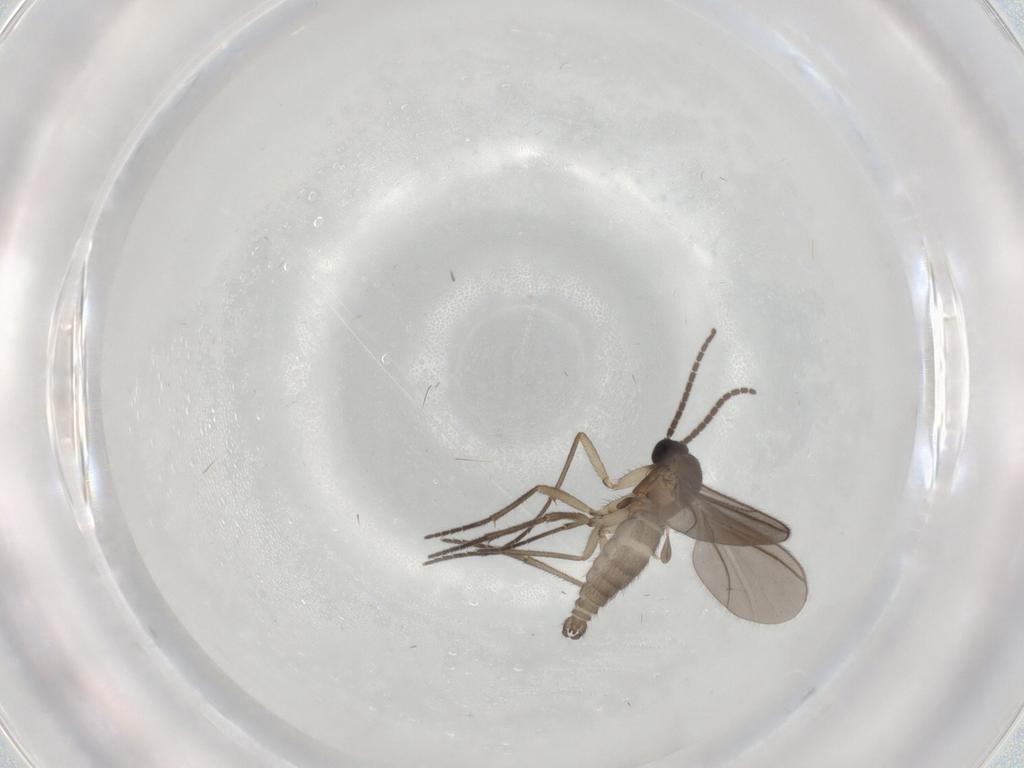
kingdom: Animalia
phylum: Arthropoda
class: Insecta
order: Diptera
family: Sciaridae
